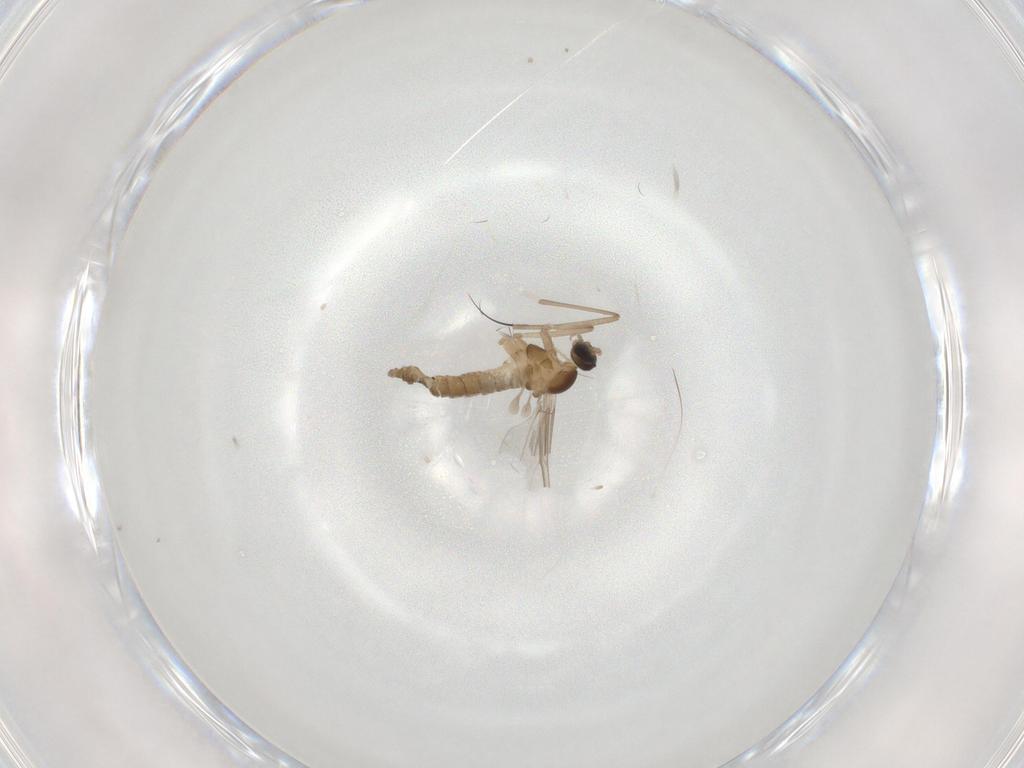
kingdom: Animalia
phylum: Arthropoda
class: Insecta
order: Diptera
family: Cecidomyiidae
